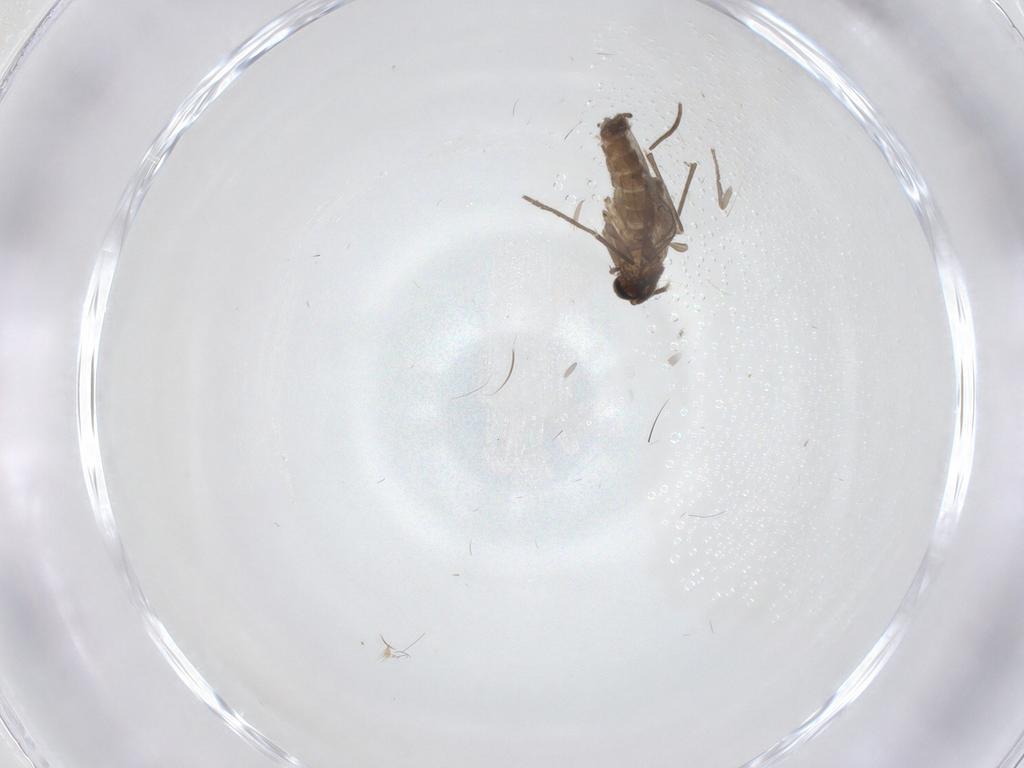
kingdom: Animalia
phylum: Arthropoda
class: Insecta
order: Diptera
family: Psychodidae
